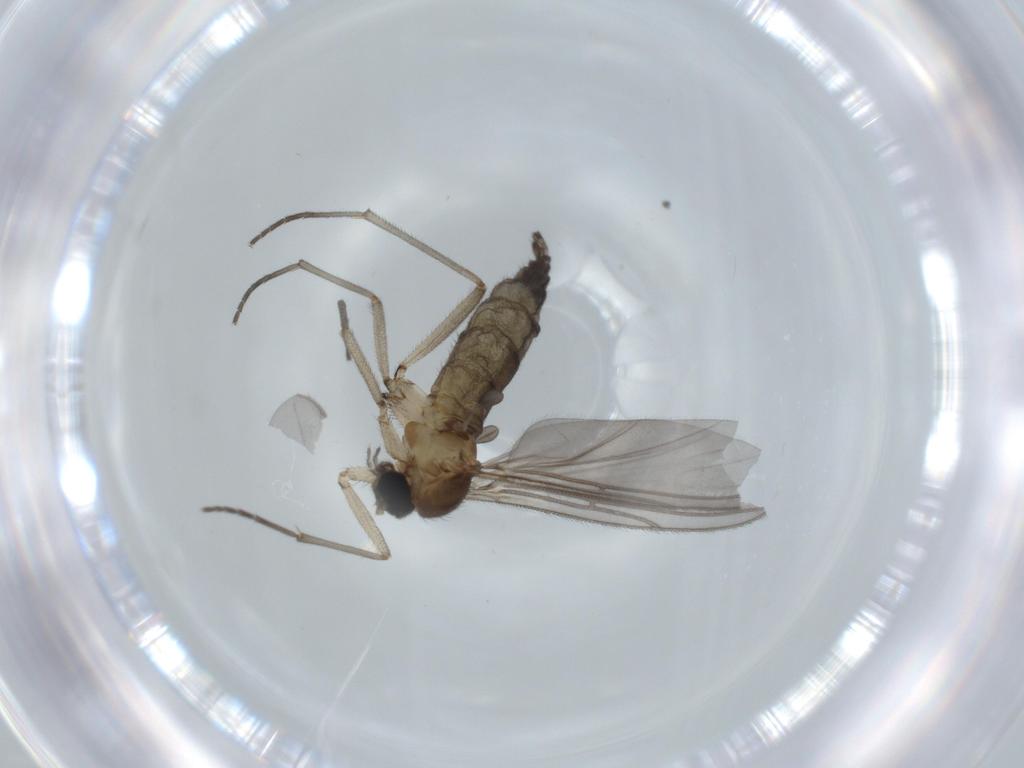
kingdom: Animalia
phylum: Arthropoda
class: Insecta
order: Diptera
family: Sciaridae
